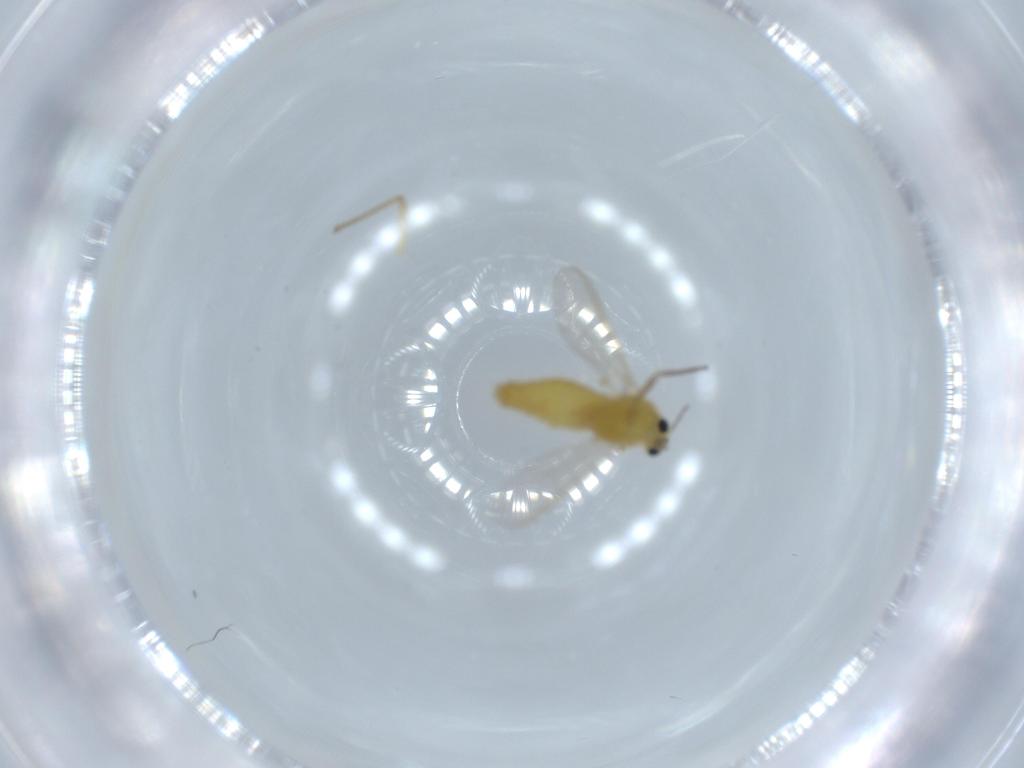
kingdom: Animalia
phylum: Arthropoda
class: Insecta
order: Diptera
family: Chironomidae
